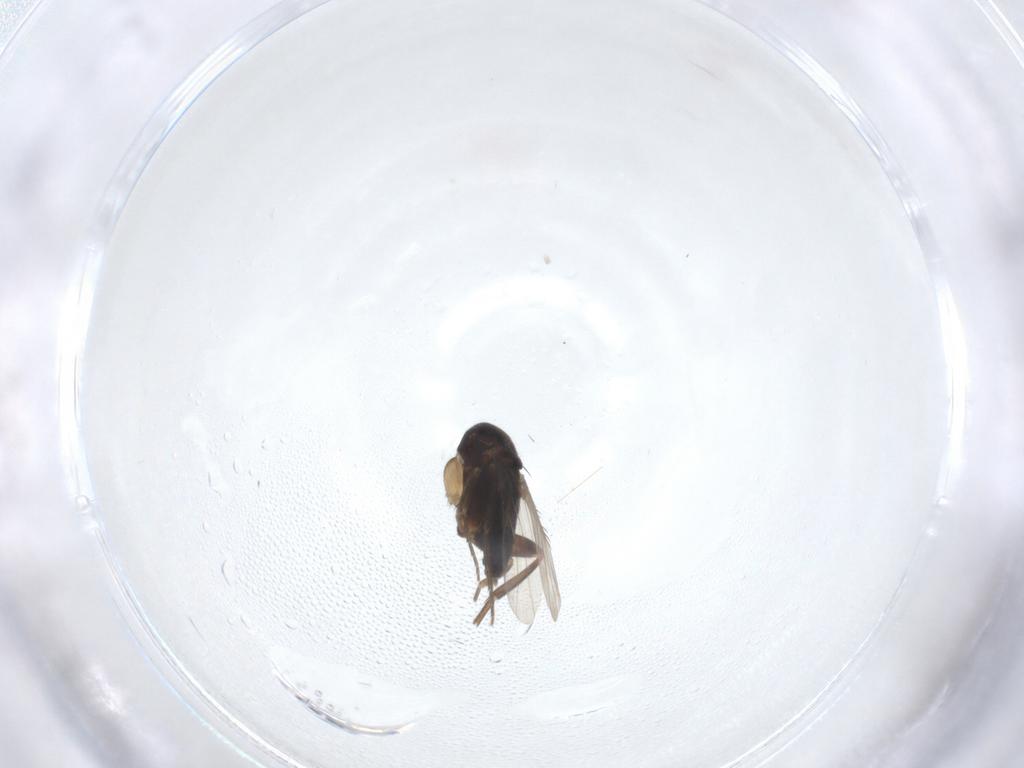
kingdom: Animalia
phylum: Arthropoda
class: Insecta
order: Diptera
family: Phoridae
